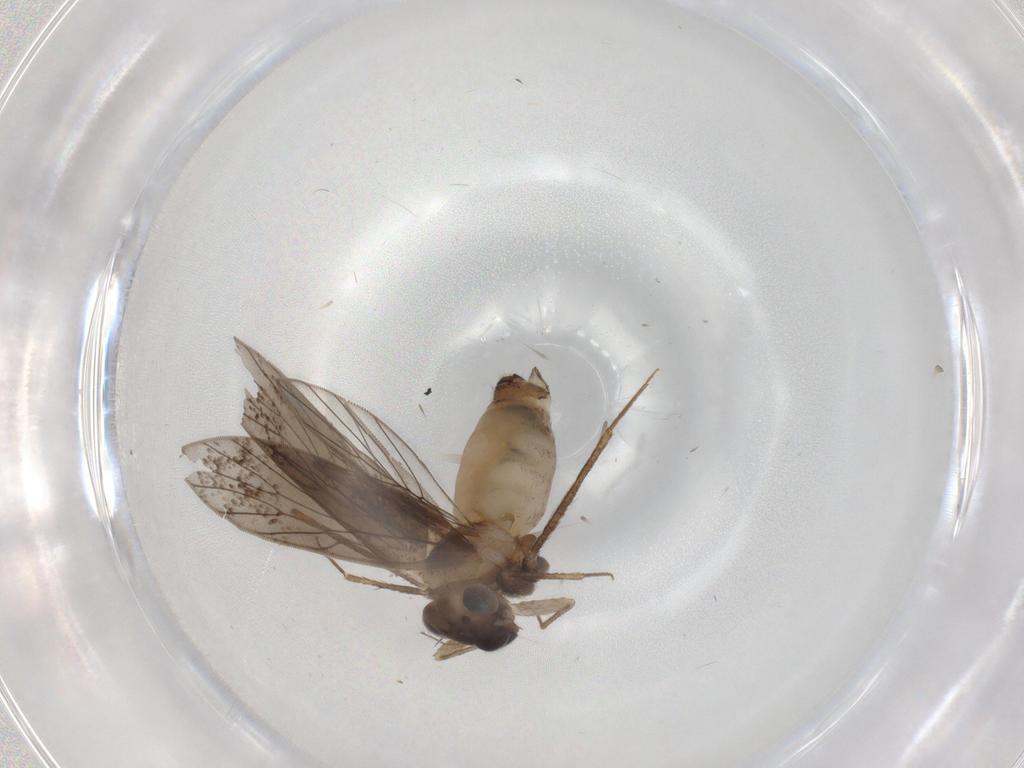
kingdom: Animalia
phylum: Arthropoda
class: Insecta
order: Psocodea
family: Lepidopsocidae
